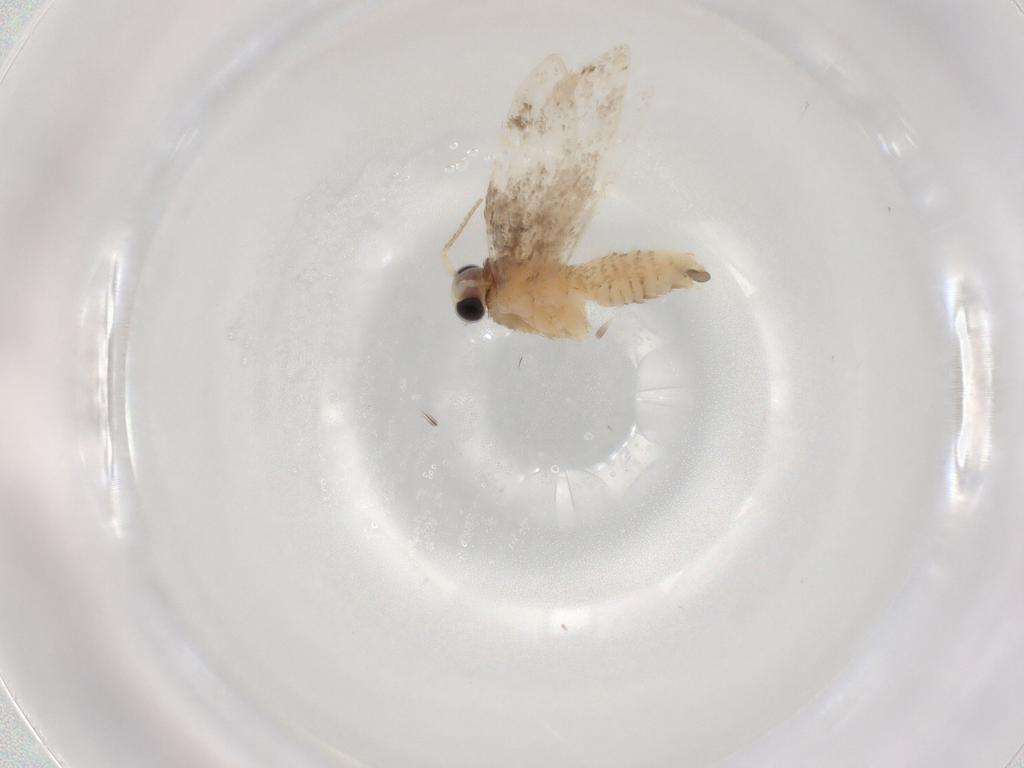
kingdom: Animalia
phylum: Arthropoda
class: Insecta
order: Lepidoptera
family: Psychidae
